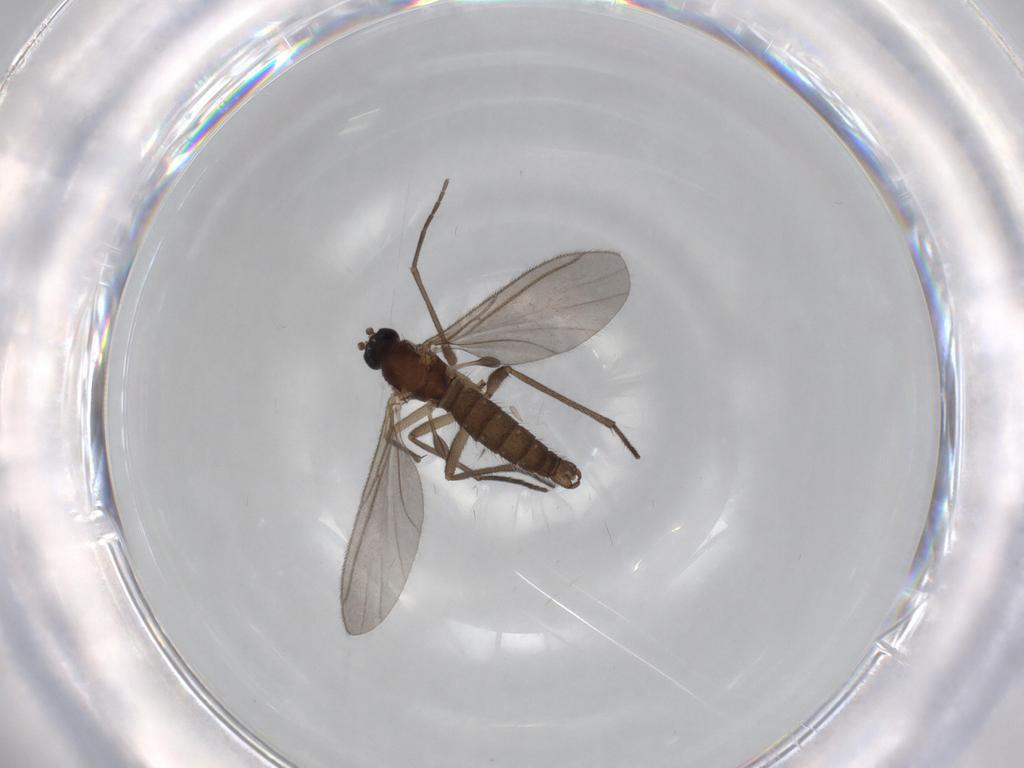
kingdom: Animalia
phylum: Arthropoda
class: Insecta
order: Diptera
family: Sciaridae
